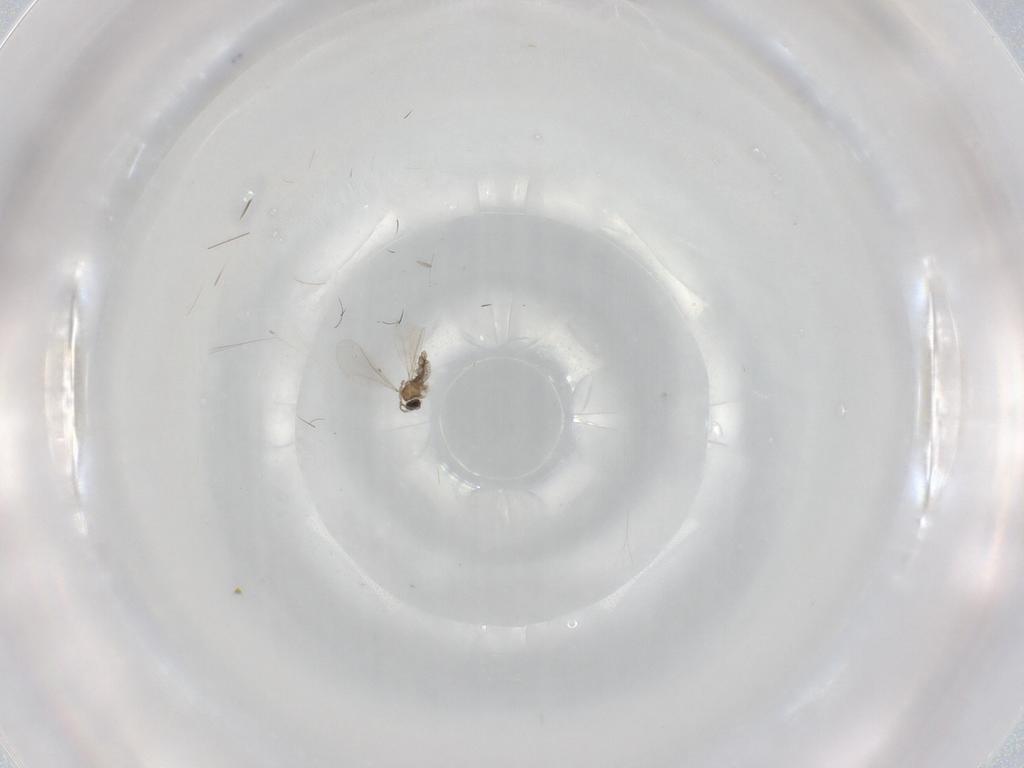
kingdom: Animalia
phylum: Arthropoda
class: Insecta
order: Diptera
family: Cecidomyiidae
